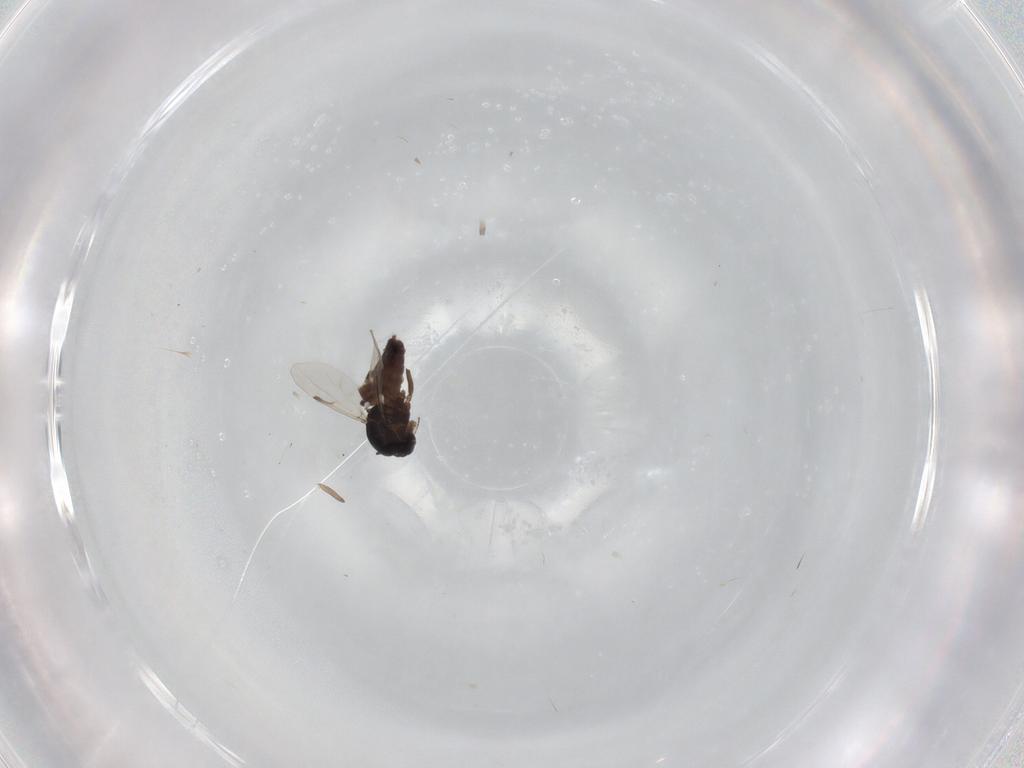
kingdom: Animalia
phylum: Arthropoda
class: Insecta
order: Diptera
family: Ceratopogonidae
